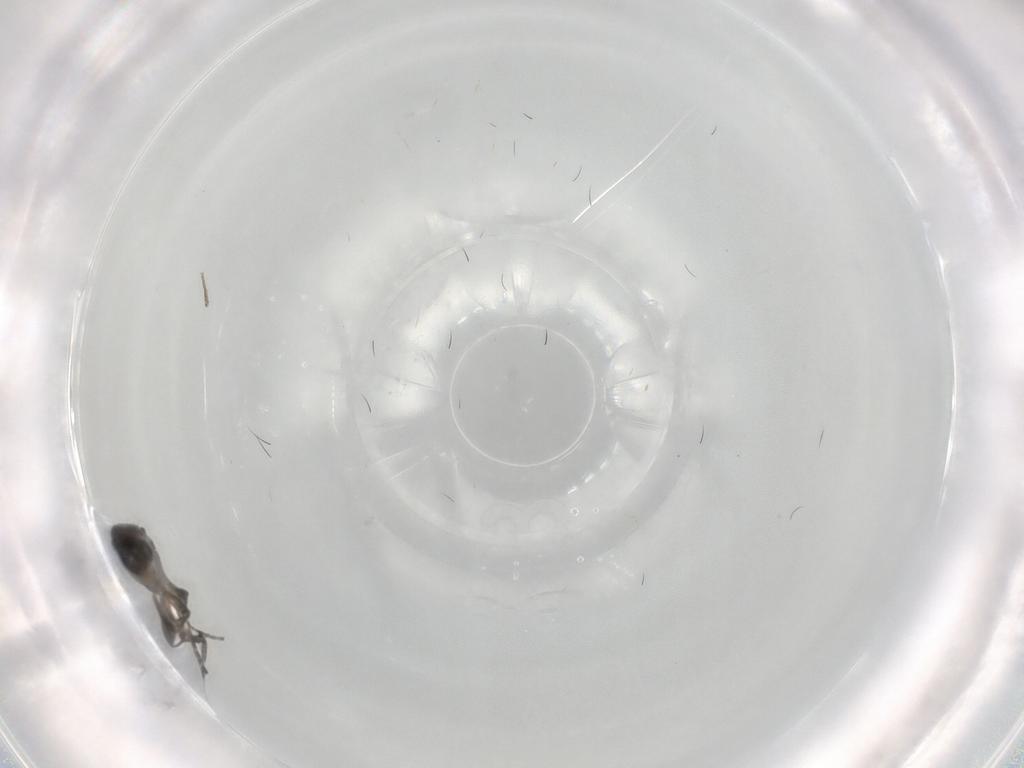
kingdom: Animalia
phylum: Arthropoda
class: Insecta
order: Diptera
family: Phoridae
